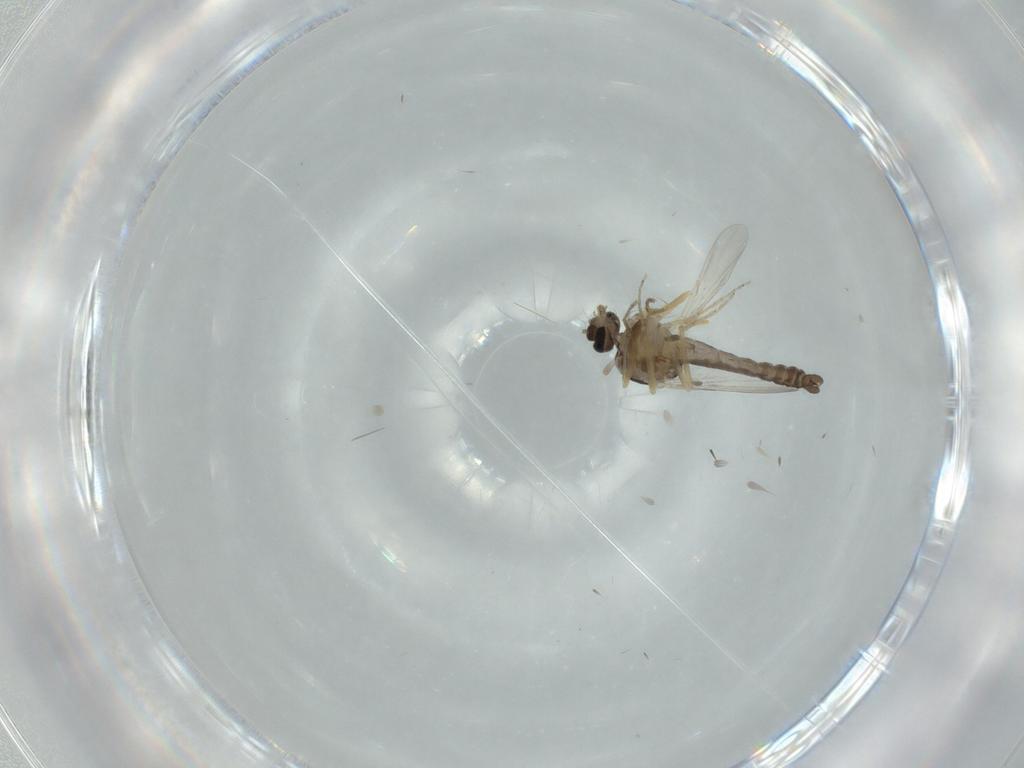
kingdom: Animalia
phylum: Arthropoda
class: Insecta
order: Diptera
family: Ceratopogonidae
